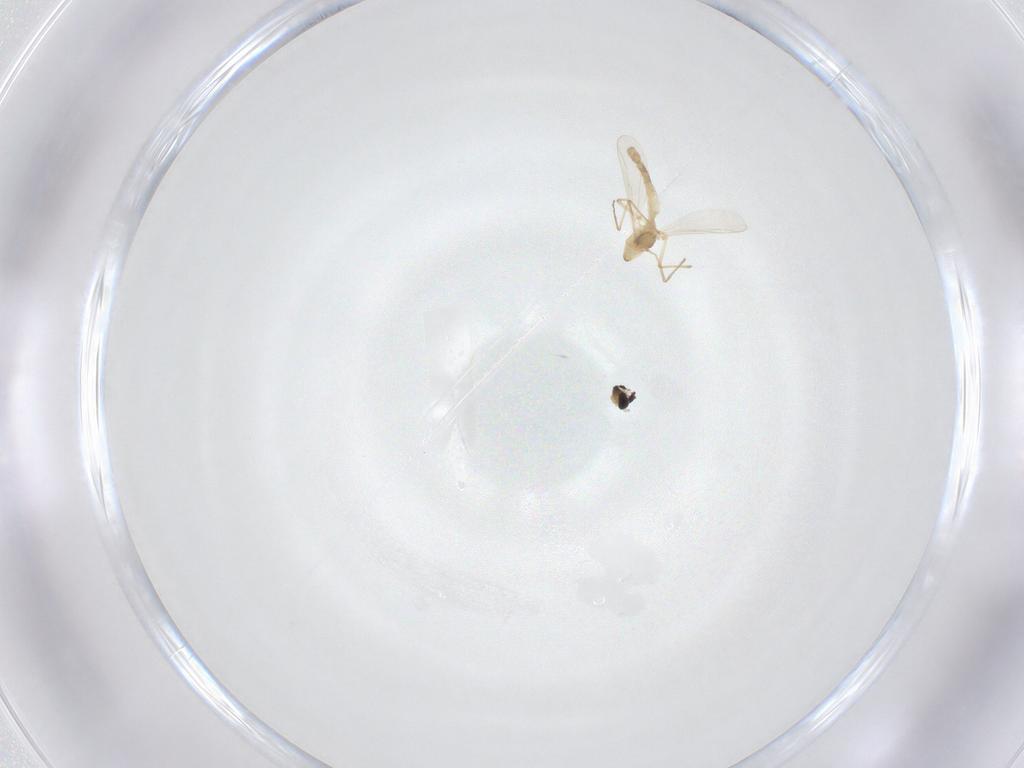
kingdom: Animalia
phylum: Arthropoda
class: Insecta
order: Diptera
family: Chironomidae
